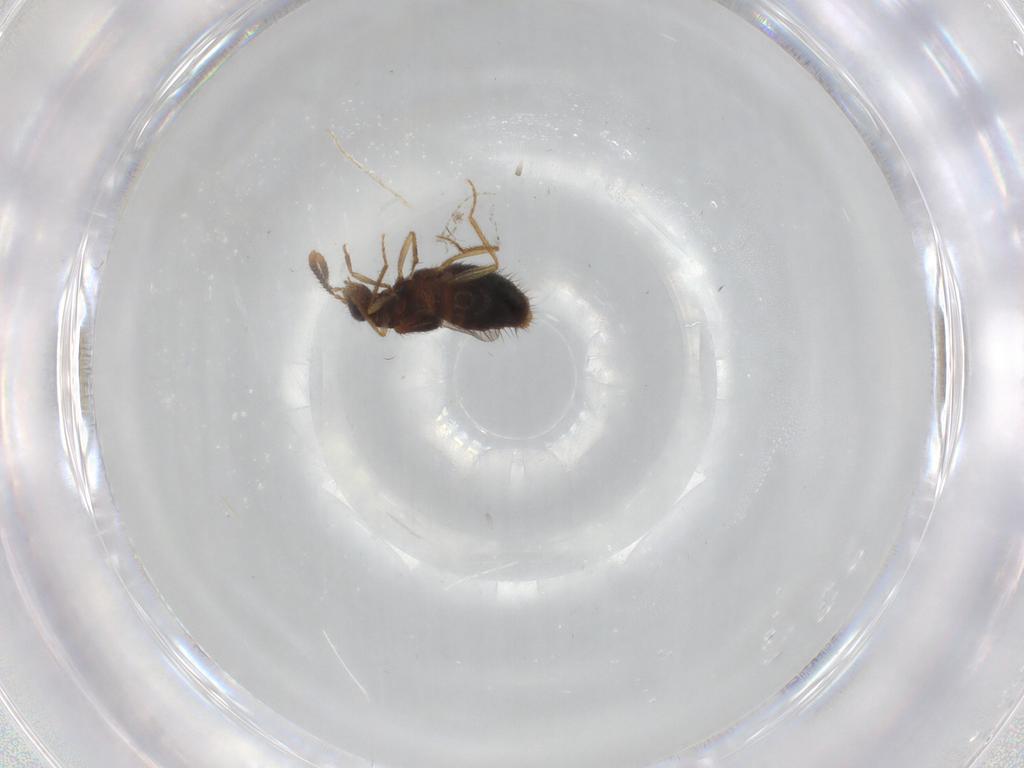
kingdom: Animalia
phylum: Arthropoda
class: Insecta
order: Coleoptera
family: Staphylinidae
